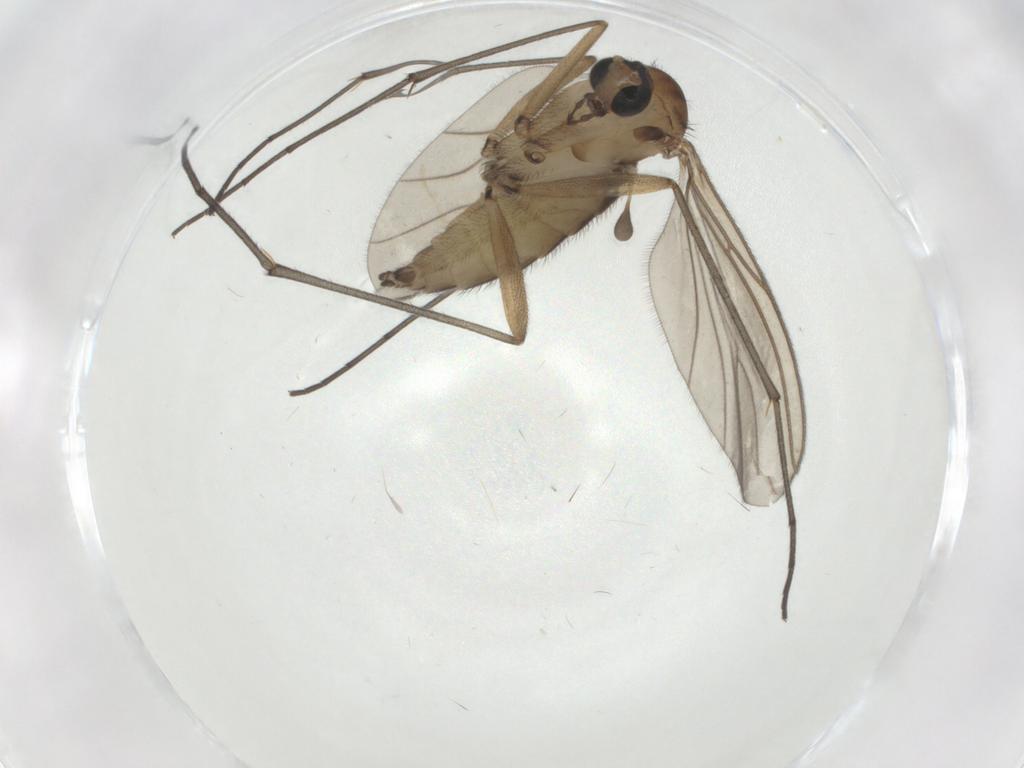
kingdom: Animalia
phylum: Arthropoda
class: Insecta
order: Diptera
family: Sciaridae
